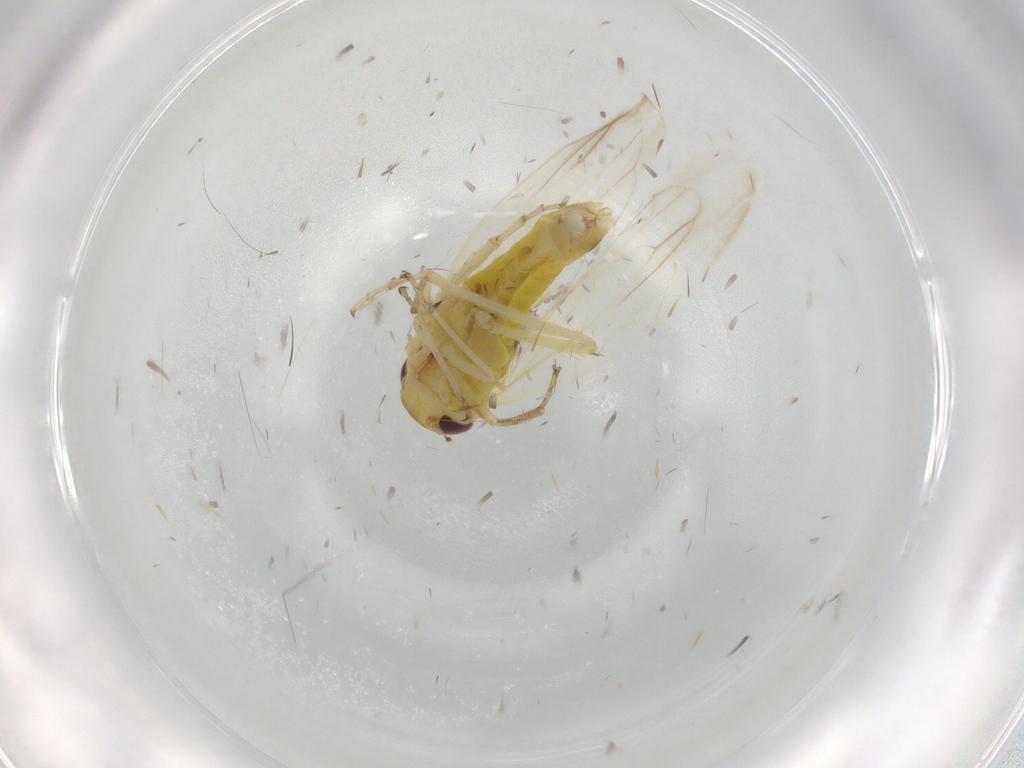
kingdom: Animalia
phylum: Arthropoda
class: Insecta
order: Hemiptera
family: Cicadellidae
